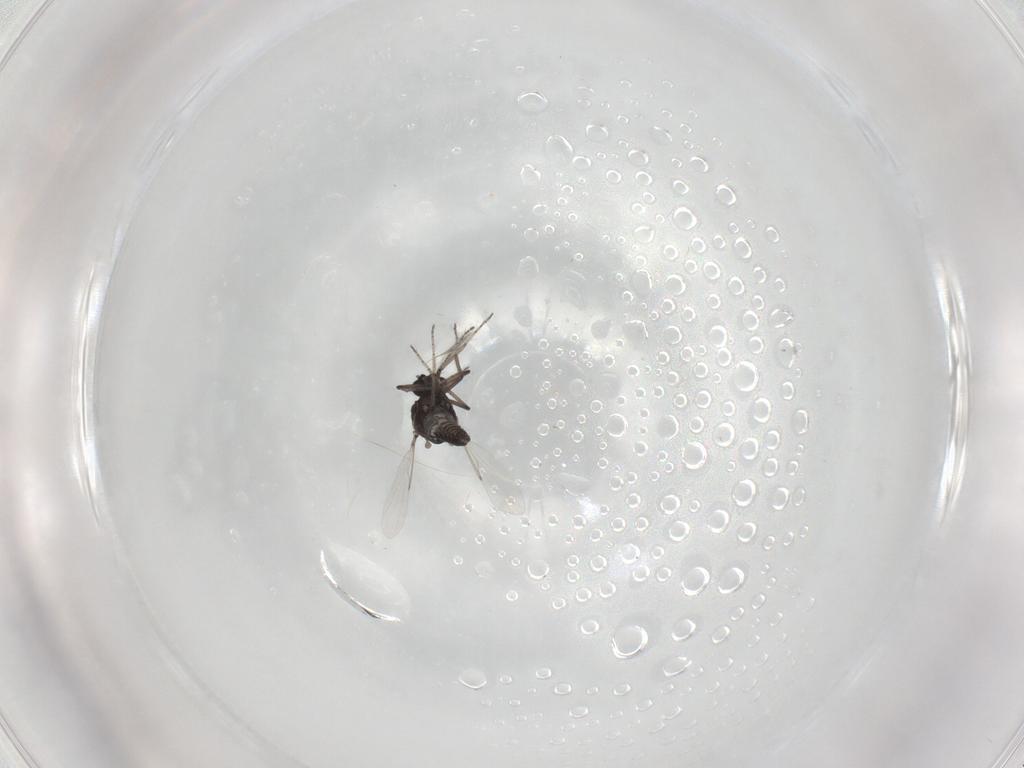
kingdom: Animalia
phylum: Arthropoda
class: Insecta
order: Diptera
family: Ceratopogonidae
